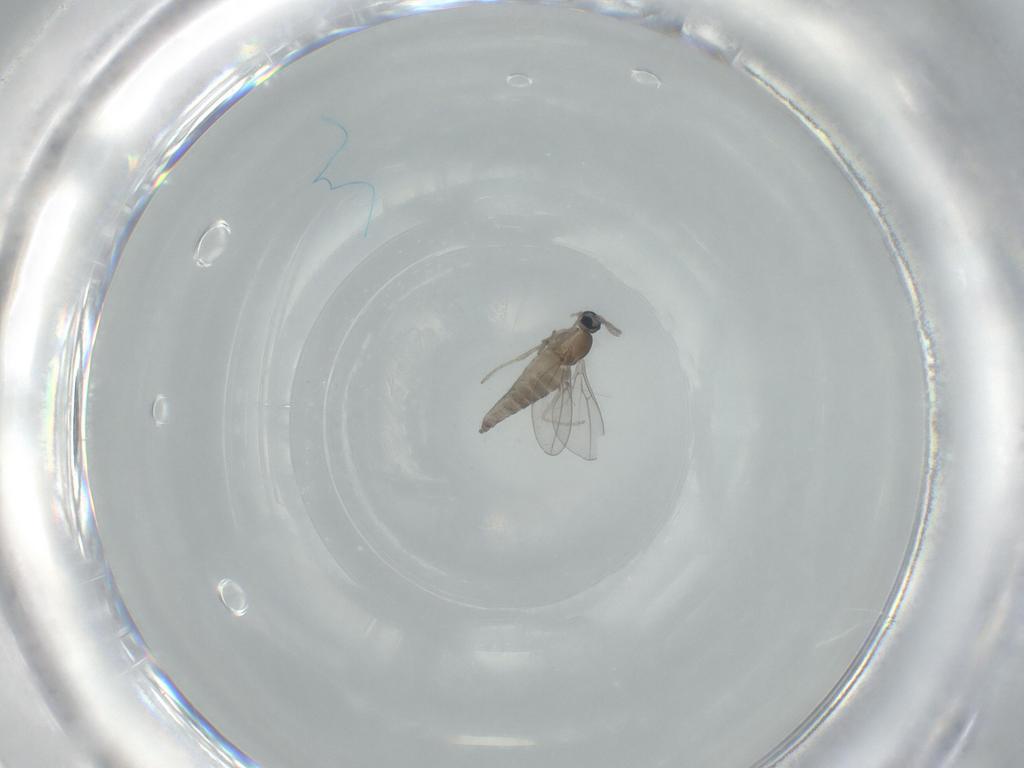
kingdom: Animalia
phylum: Arthropoda
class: Insecta
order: Diptera
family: Cecidomyiidae
